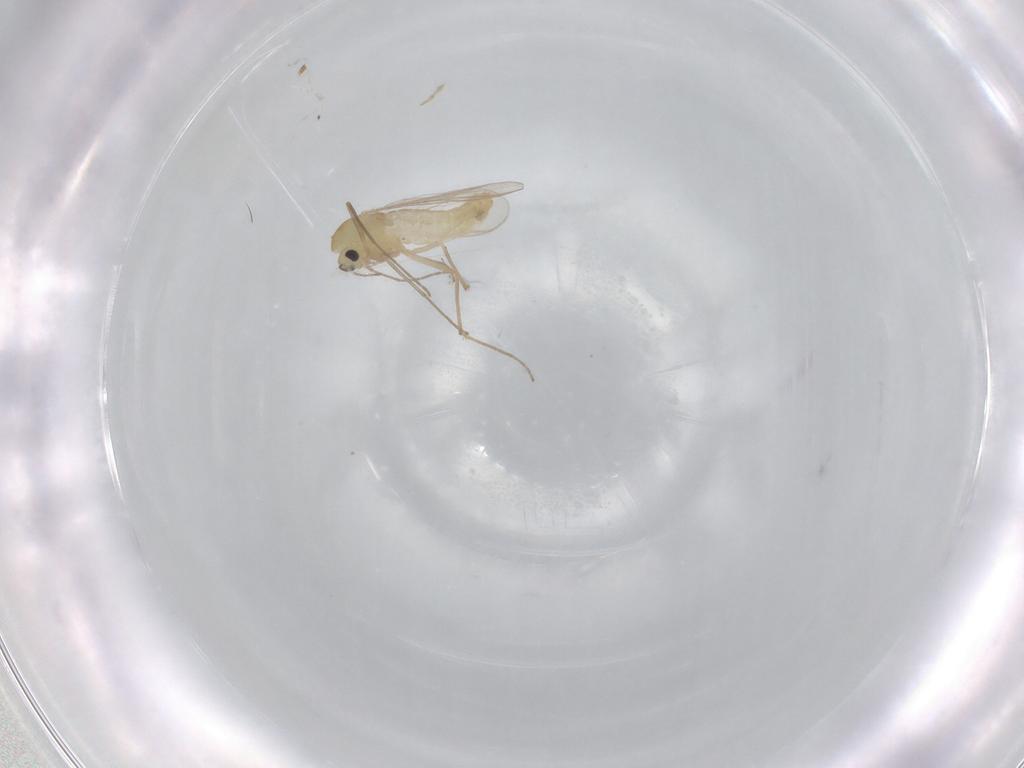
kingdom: Animalia
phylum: Arthropoda
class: Insecta
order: Diptera
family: Chironomidae
